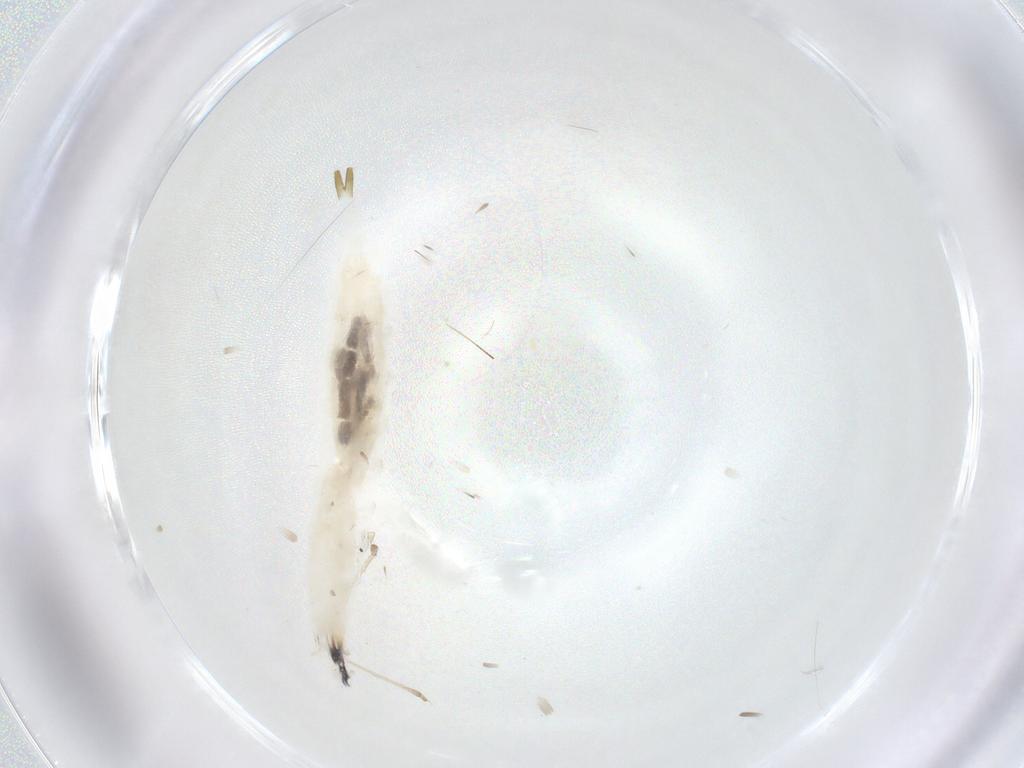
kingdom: Animalia
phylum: Arthropoda
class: Insecta
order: Diptera
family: Drosophilidae
